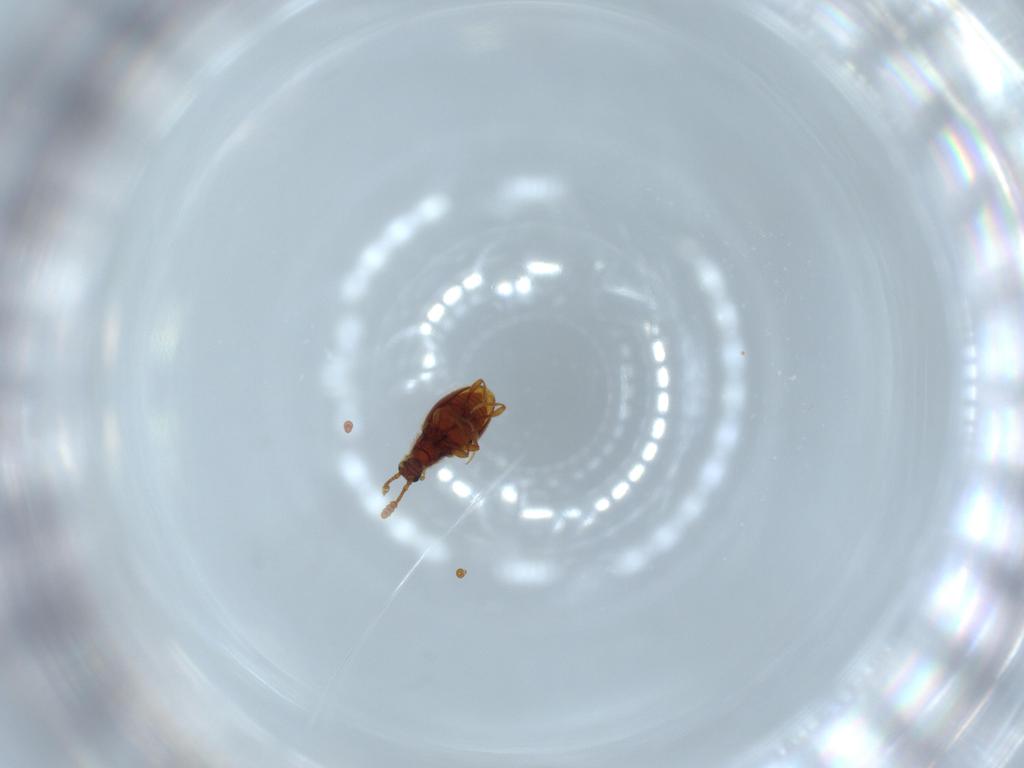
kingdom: Animalia
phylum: Arthropoda
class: Insecta
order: Coleoptera
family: Staphylinidae
